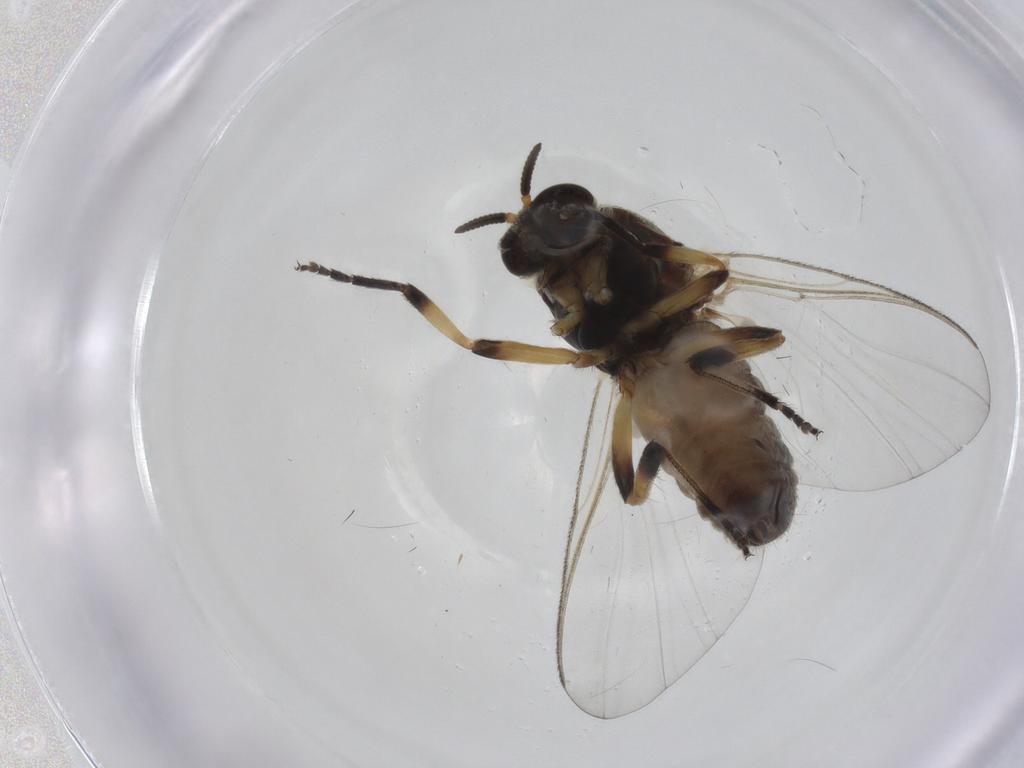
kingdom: Animalia
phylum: Arthropoda
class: Insecta
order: Diptera
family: Simuliidae
